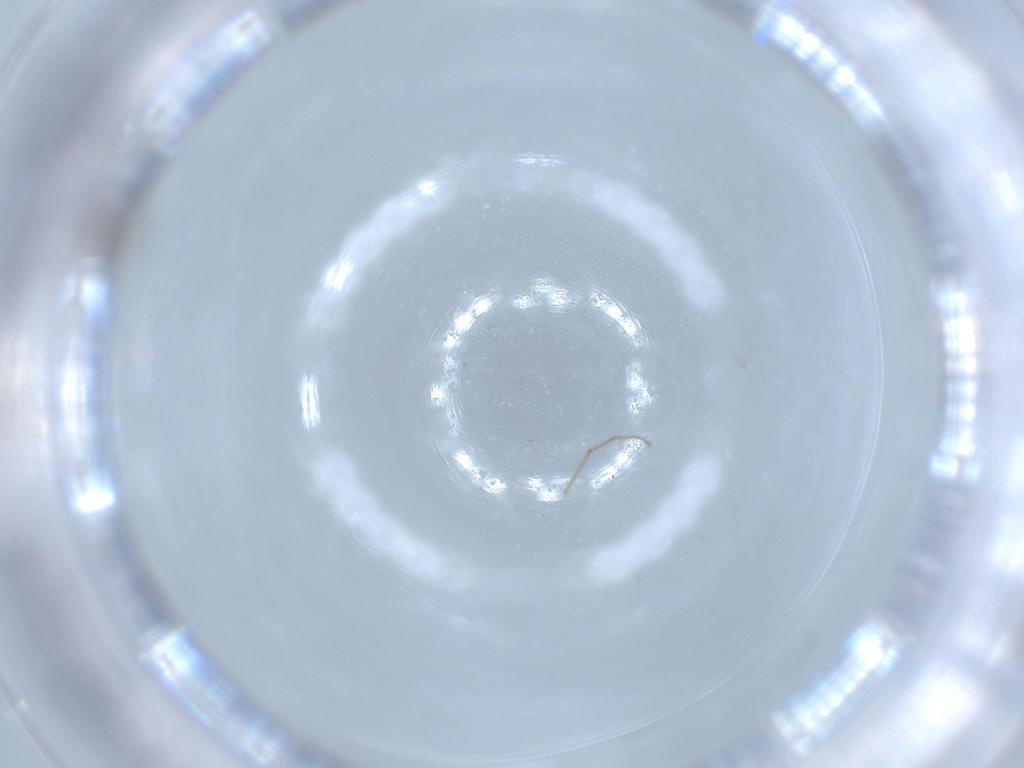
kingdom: Animalia
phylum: Arthropoda
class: Insecta
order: Diptera
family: Chironomidae
